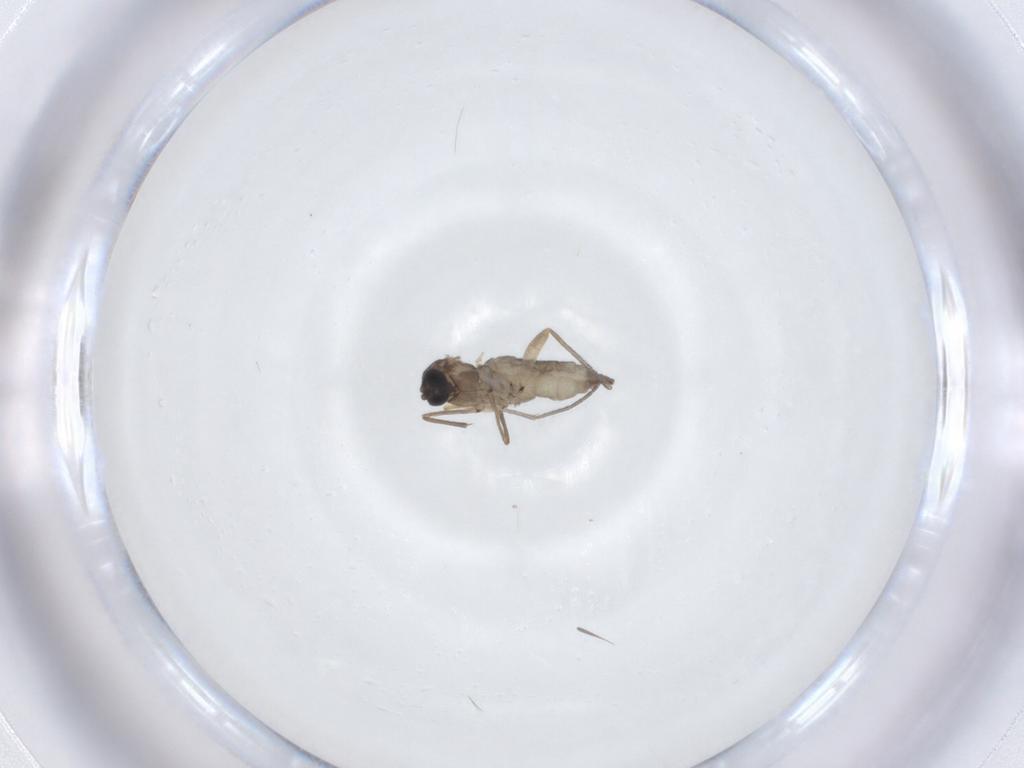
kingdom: Animalia
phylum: Arthropoda
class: Insecta
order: Diptera
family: Sciaridae
